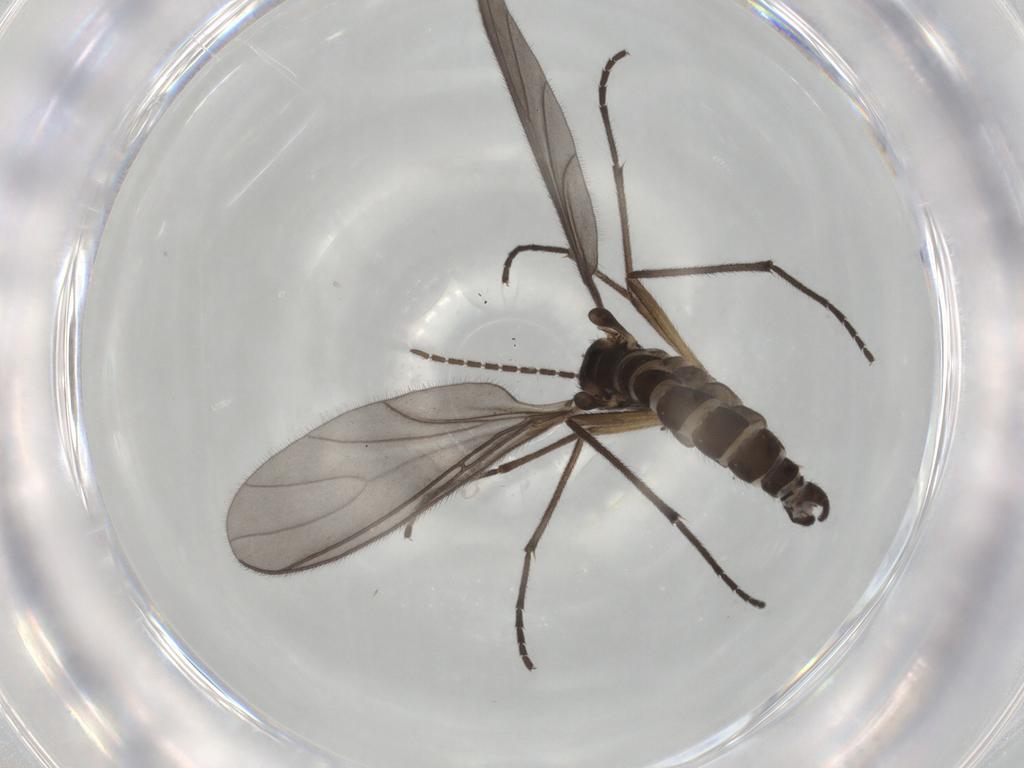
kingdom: Animalia
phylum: Arthropoda
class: Insecta
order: Diptera
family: Sciaridae
